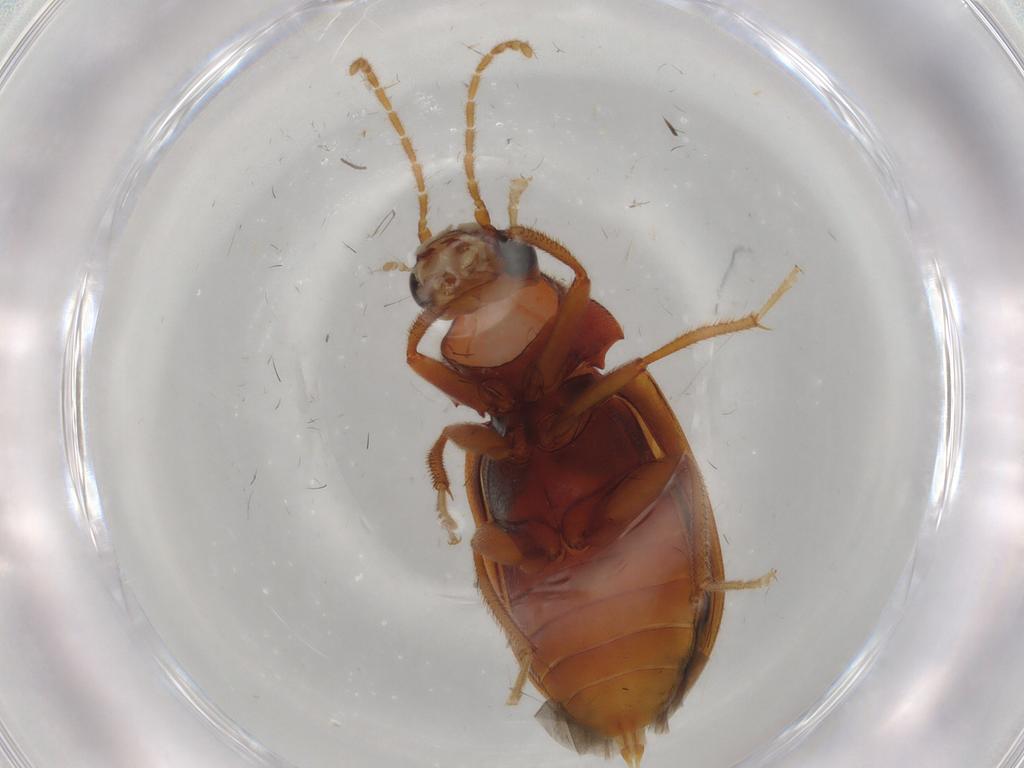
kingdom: Animalia
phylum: Arthropoda
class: Insecta
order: Coleoptera
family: Ptilodactylidae
